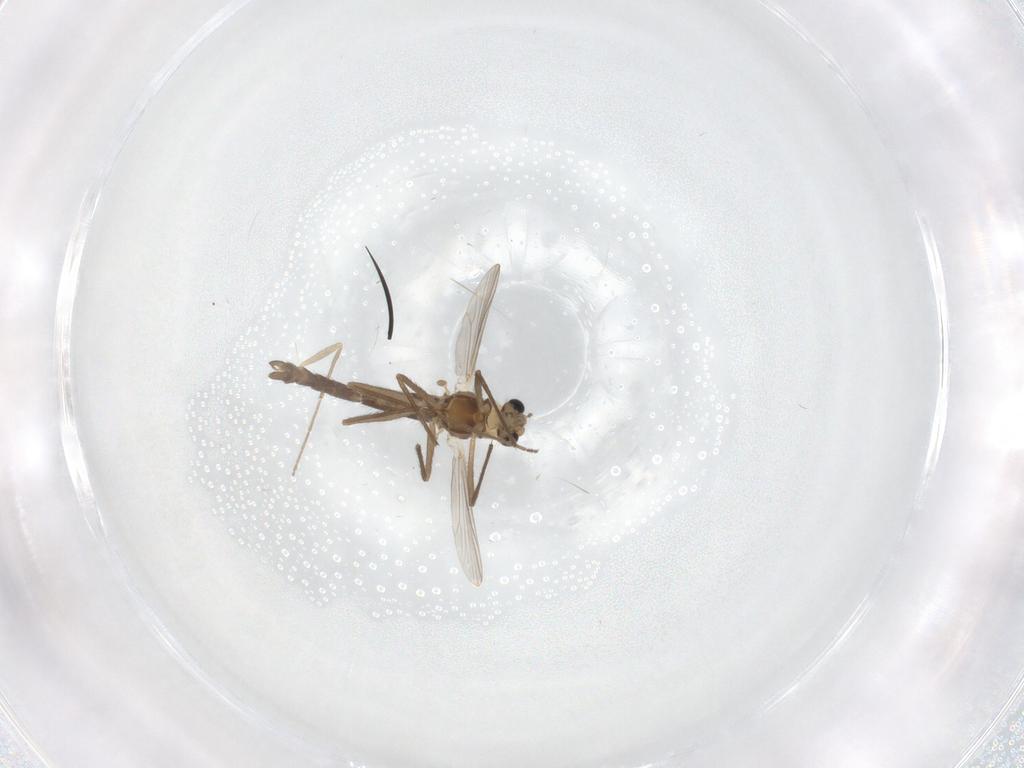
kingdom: Animalia
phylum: Arthropoda
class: Insecta
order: Diptera
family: Chironomidae
